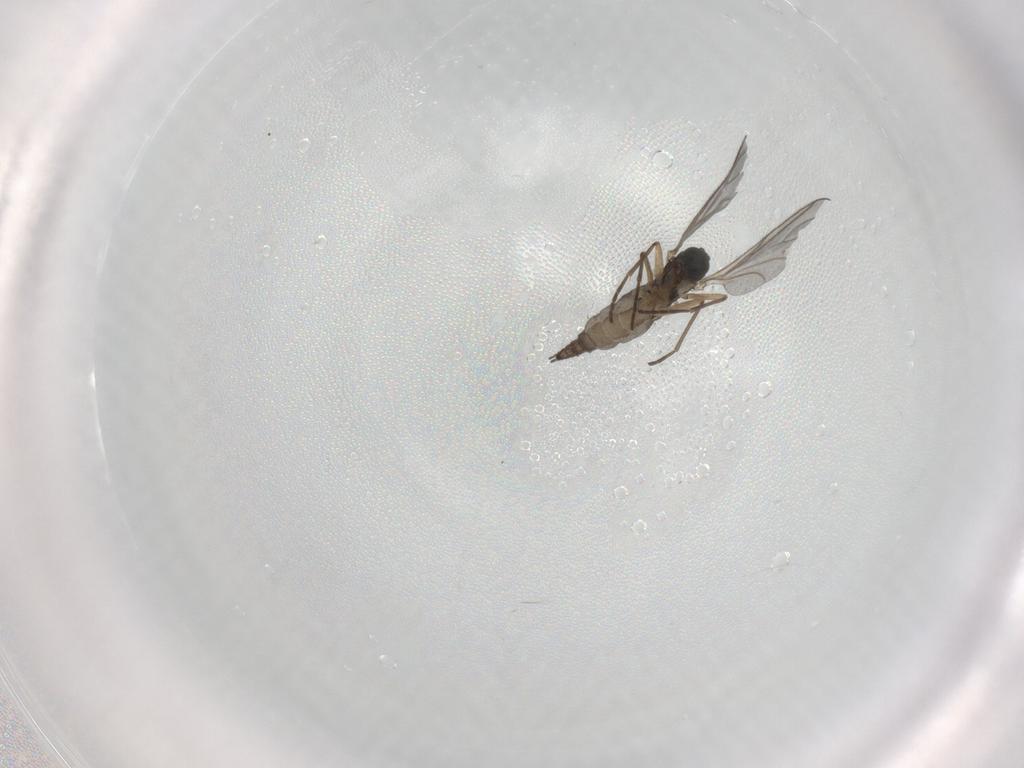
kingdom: Animalia
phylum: Arthropoda
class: Insecta
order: Diptera
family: Sciaridae
